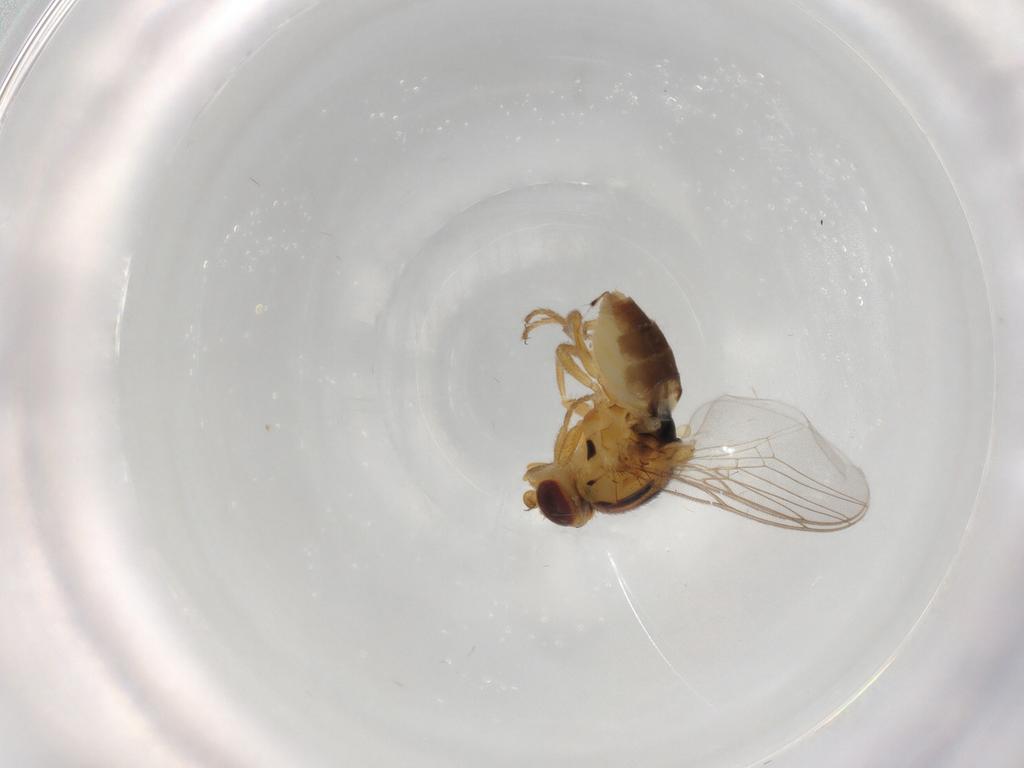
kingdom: Animalia
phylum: Arthropoda
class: Insecta
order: Diptera
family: Chloropidae
